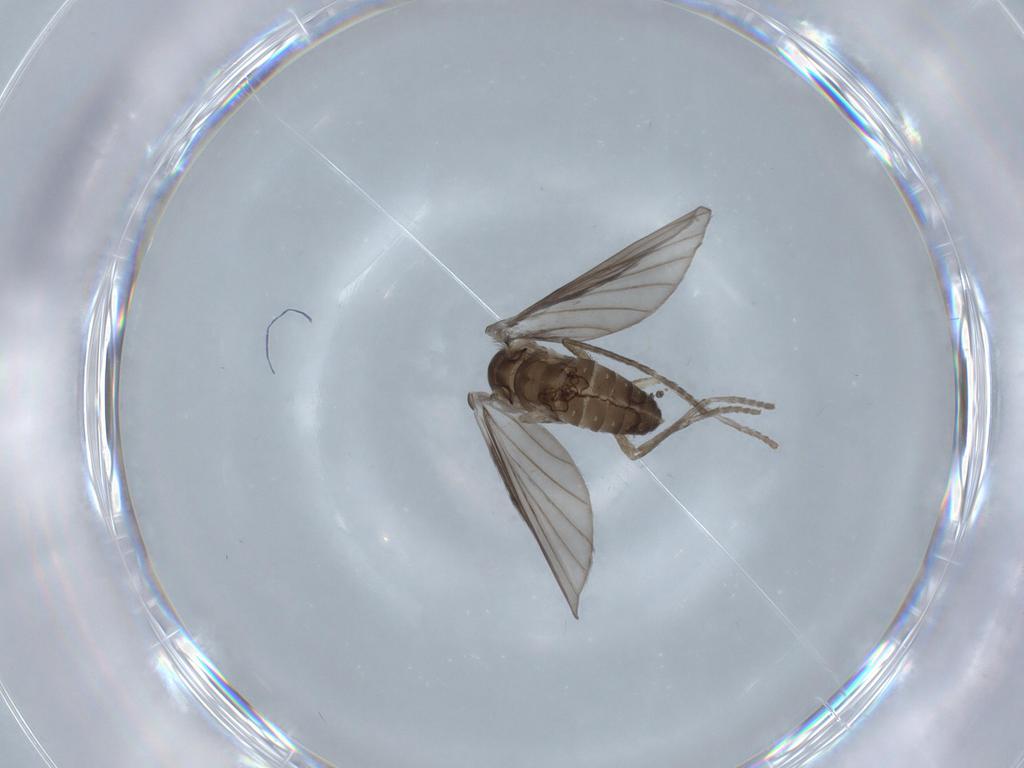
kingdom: Animalia
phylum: Arthropoda
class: Insecta
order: Diptera
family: Psychodidae
